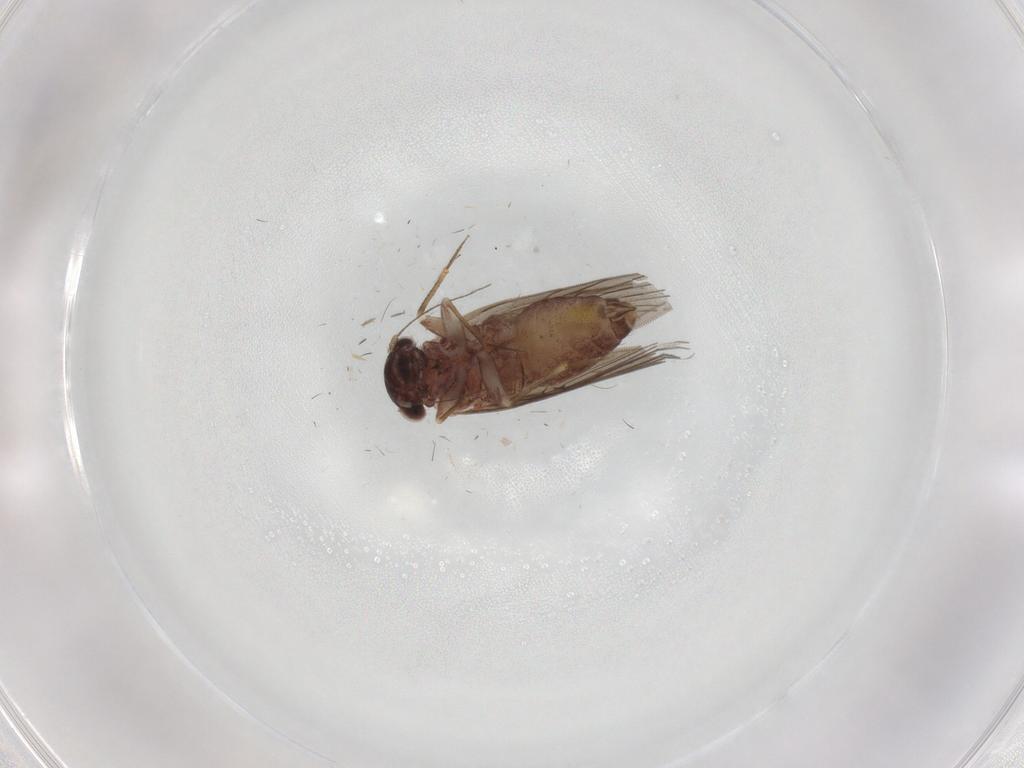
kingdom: Animalia
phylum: Arthropoda
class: Insecta
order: Psocodea
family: Lepidopsocidae
